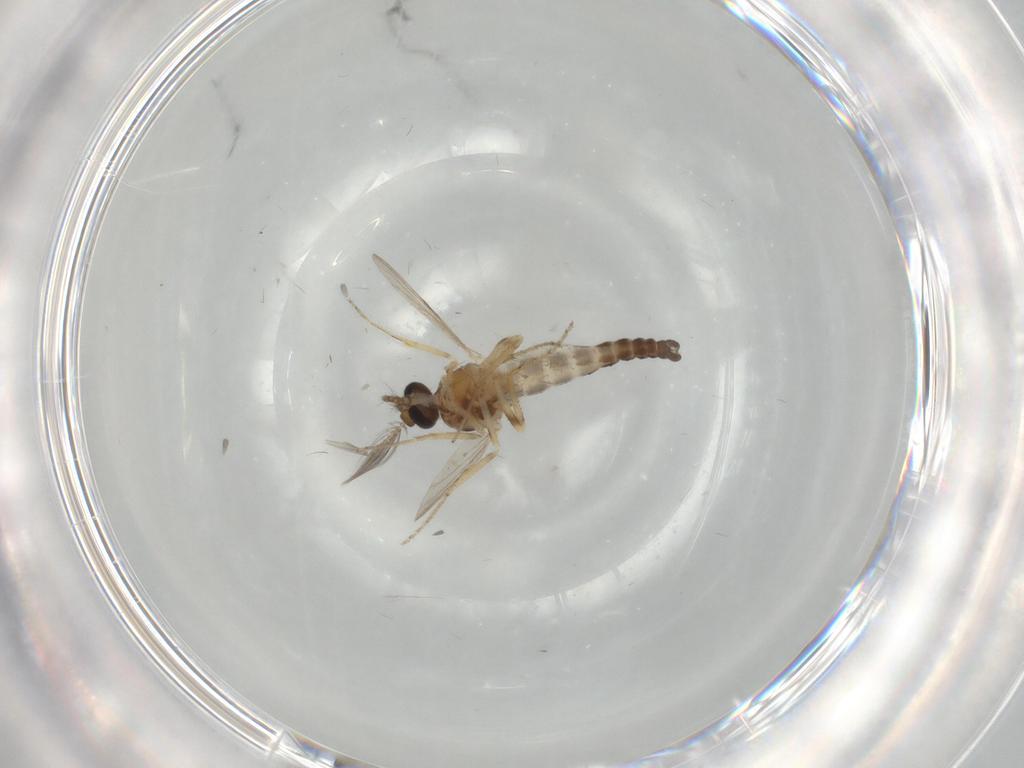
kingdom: Animalia
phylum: Arthropoda
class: Insecta
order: Diptera
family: Ceratopogonidae
